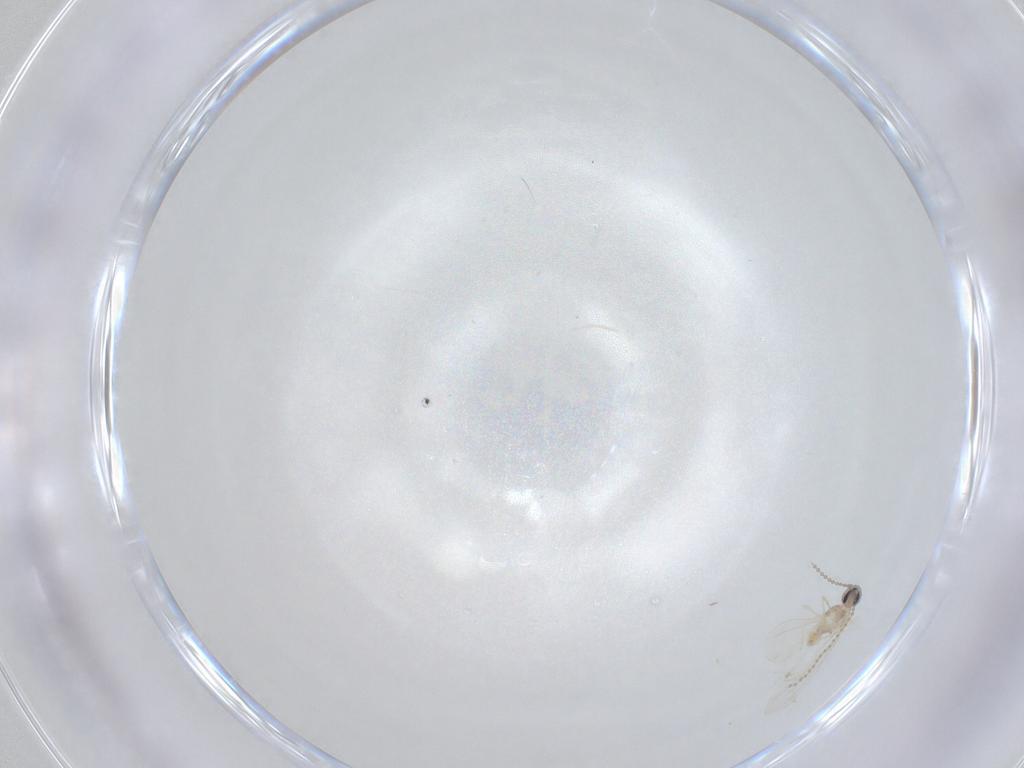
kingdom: Animalia
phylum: Arthropoda
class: Insecta
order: Diptera
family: Cecidomyiidae
